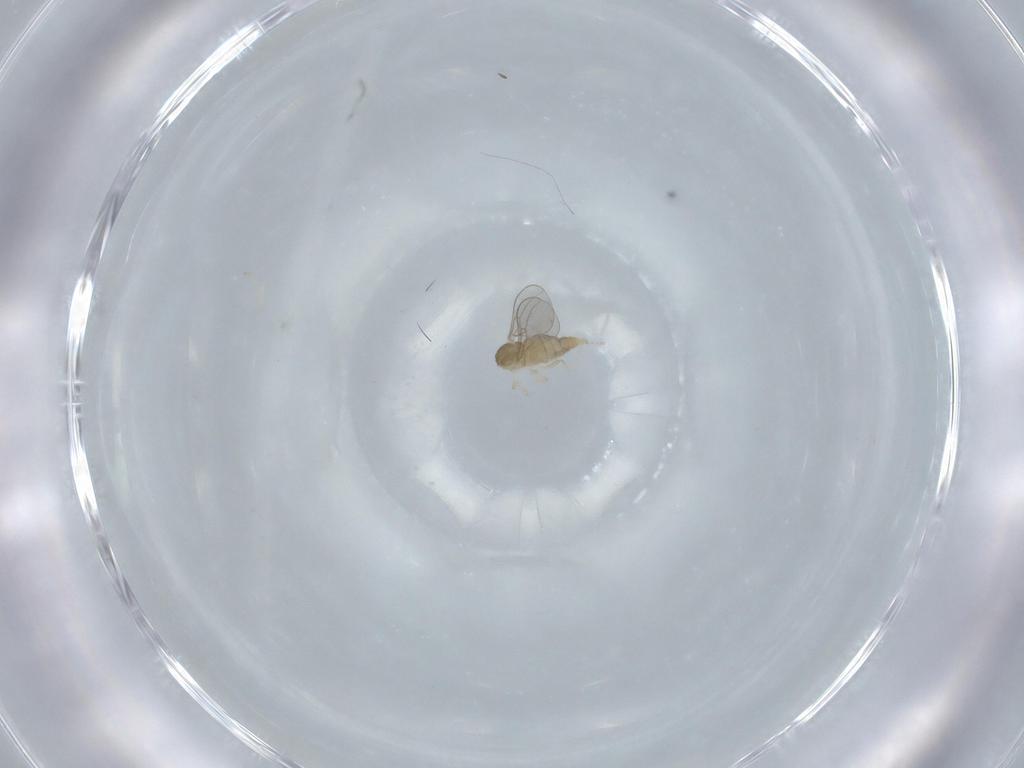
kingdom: Animalia
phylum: Arthropoda
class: Insecta
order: Diptera
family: Cecidomyiidae
